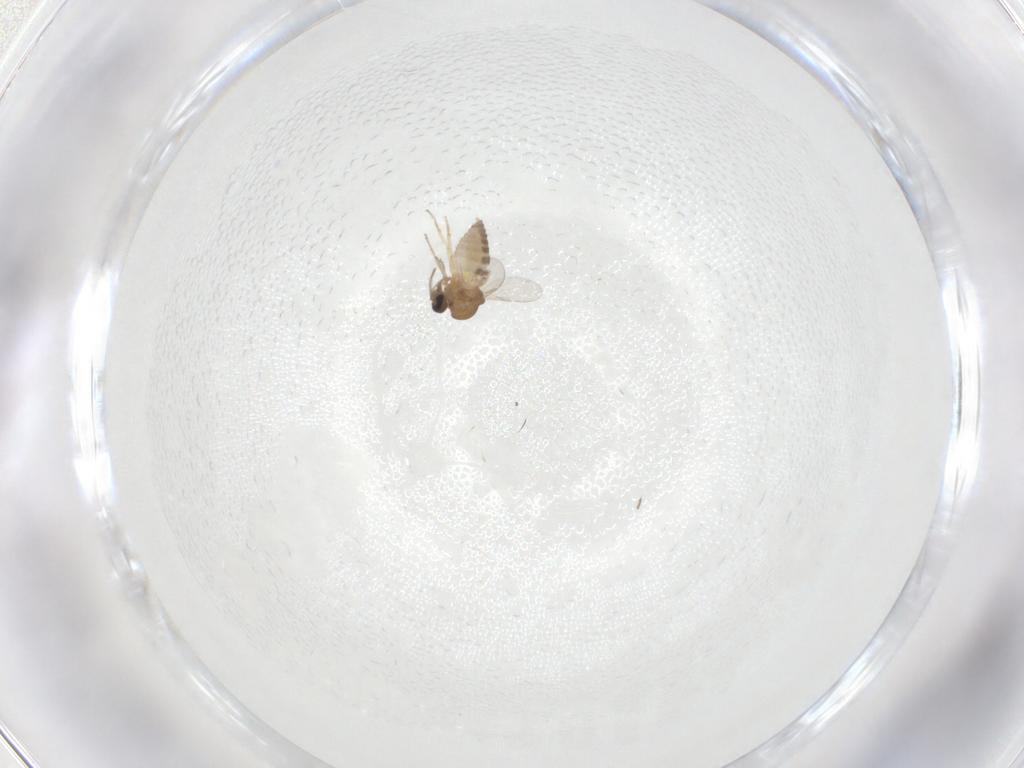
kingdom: Animalia
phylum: Arthropoda
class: Insecta
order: Diptera
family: Ceratopogonidae
